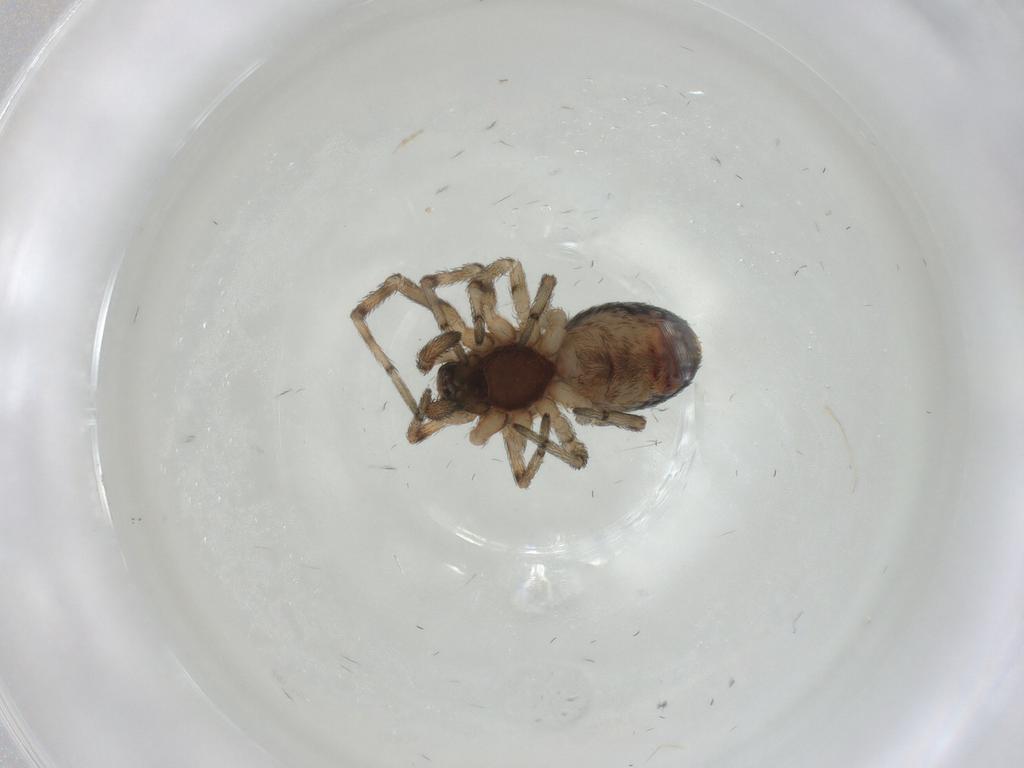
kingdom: Animalia
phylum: Arthropoda
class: Arachnida
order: Araneae
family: Dictynidae
